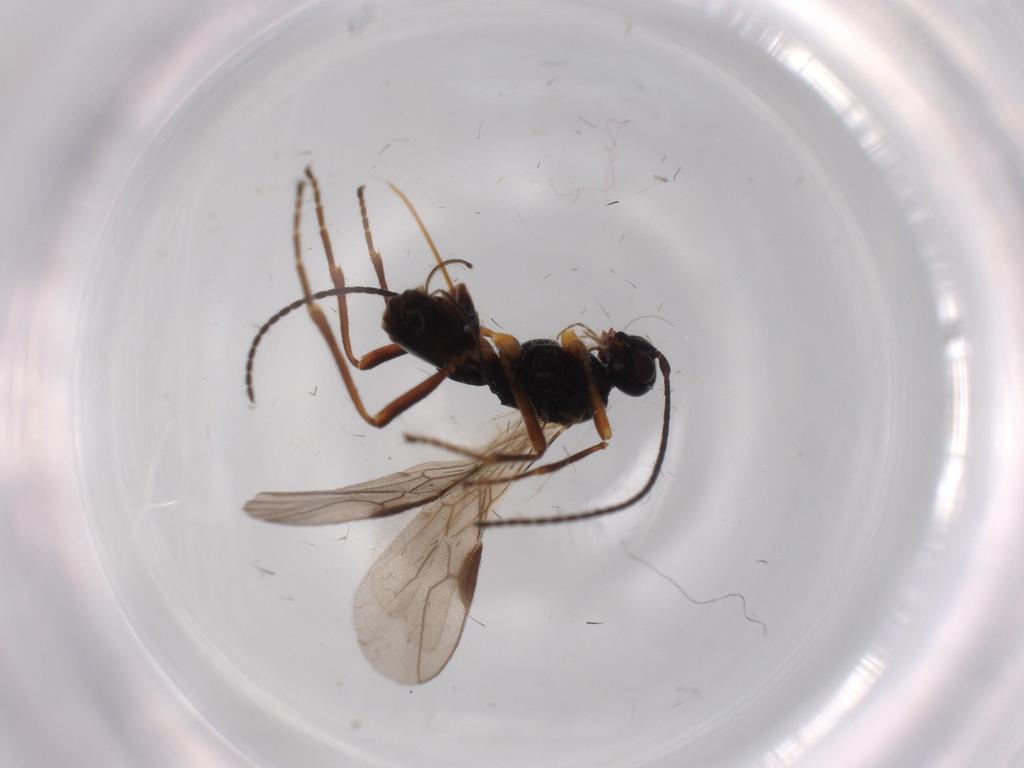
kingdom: Animalia
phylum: Arthropoda
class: Insecta
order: Hymenoptera
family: Braconidae
